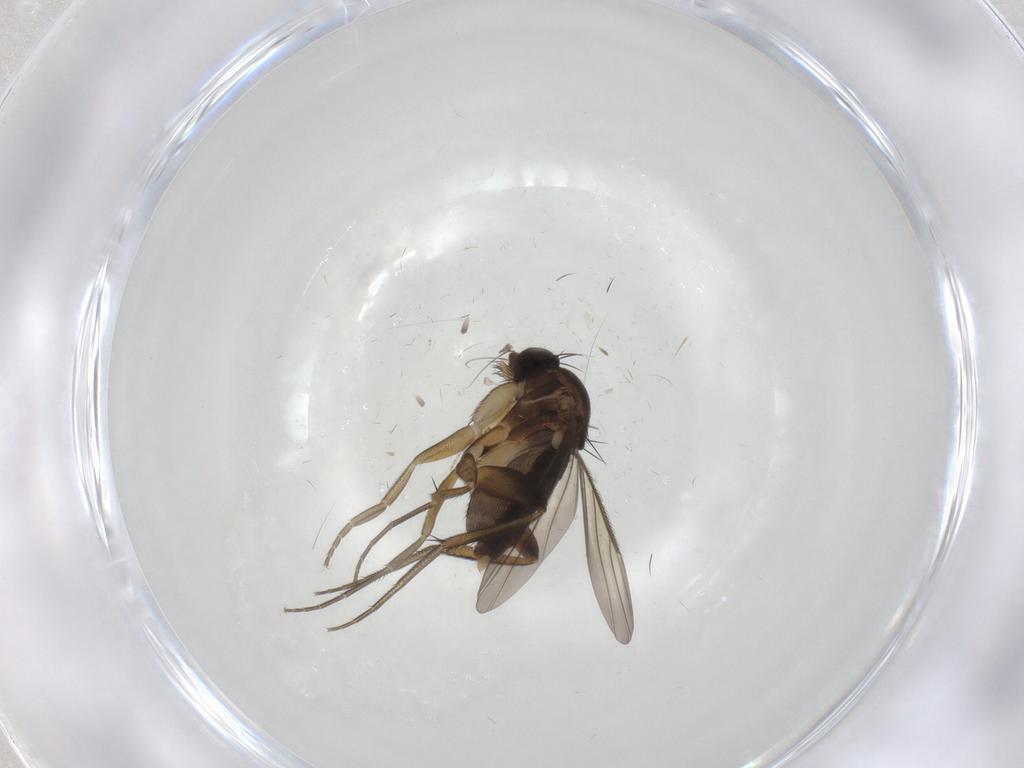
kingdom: Animalia
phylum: Arthropoda
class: Insecta
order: Diptera
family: Phoridae
